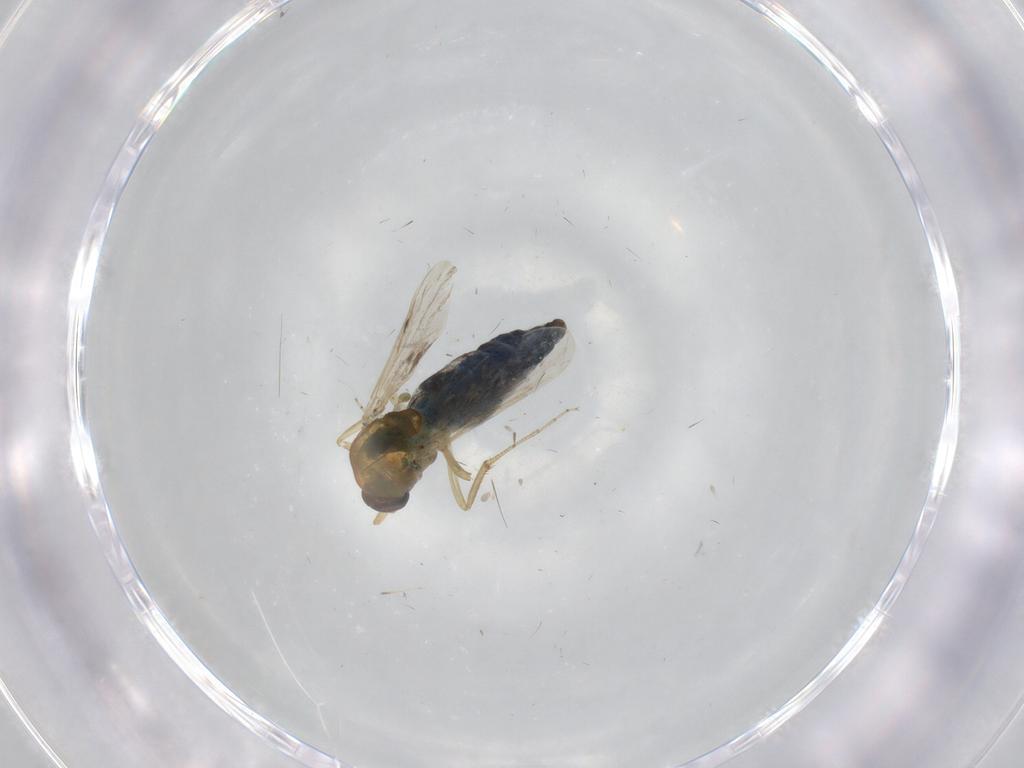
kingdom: Animalia
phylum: Arthropoda
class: Insecta
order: Diptera
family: Ceratopogonidae
